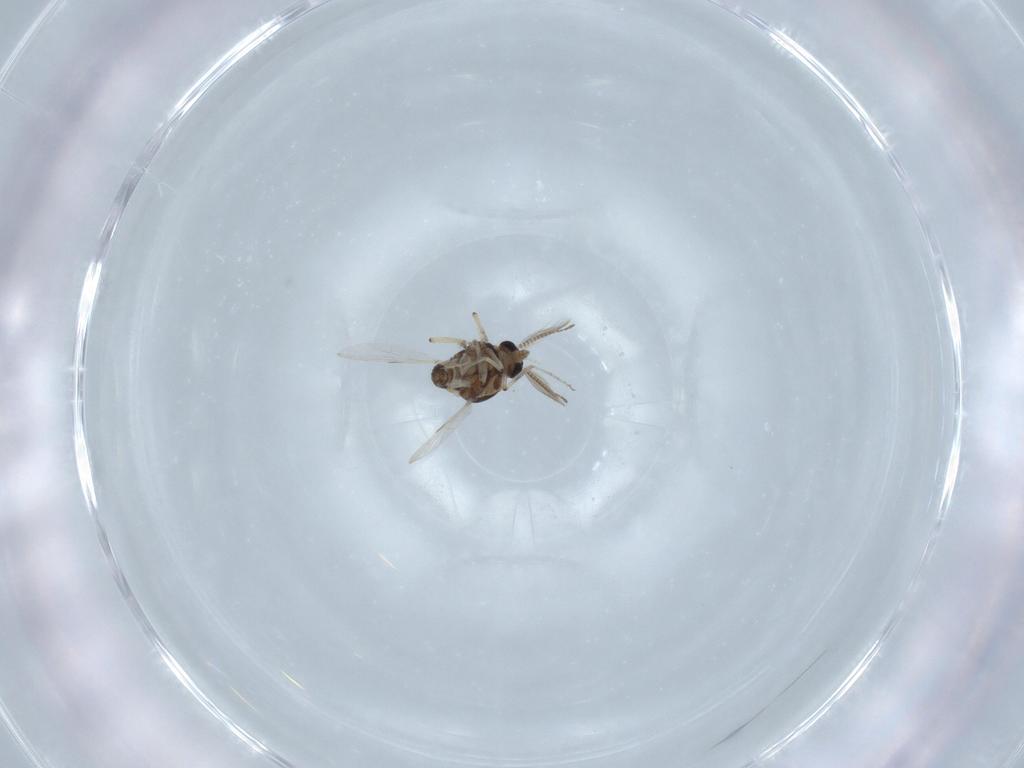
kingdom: Animalia
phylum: Arthropoda
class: Insecta
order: Diptera
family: Ceratopogonidae
